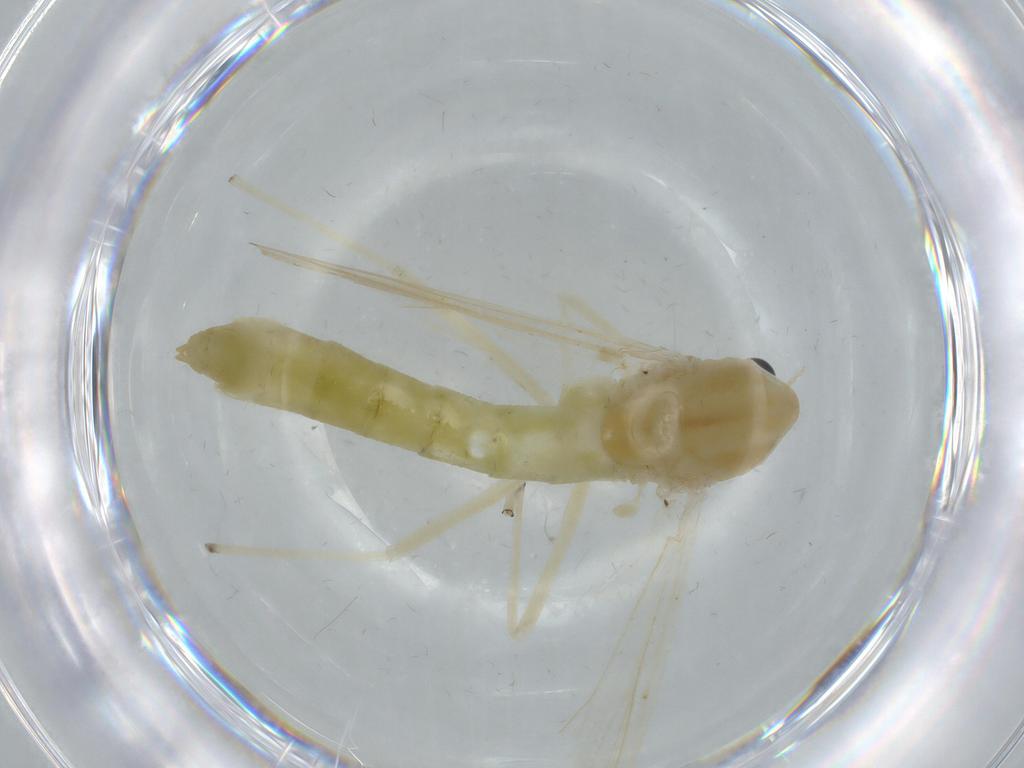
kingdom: Animalia
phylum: Arthropoda
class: Insecta
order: Diptera
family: Chironomidae
